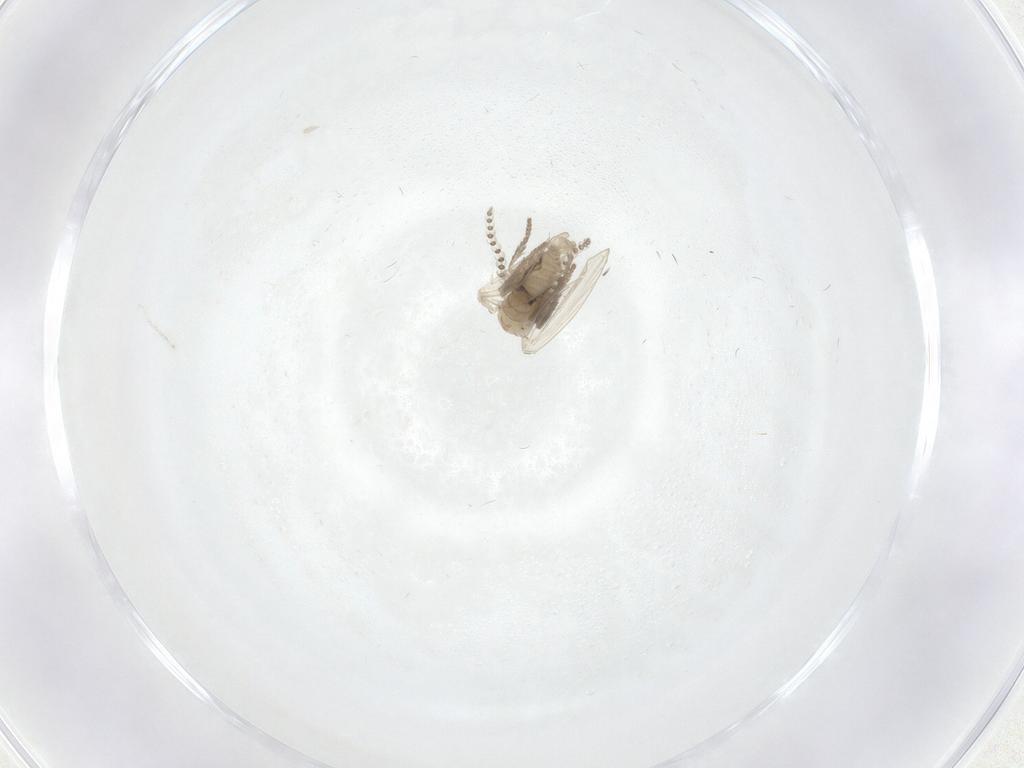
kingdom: Animalia
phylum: Arthropoda
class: Insecta
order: Diptera
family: Psychodidae
